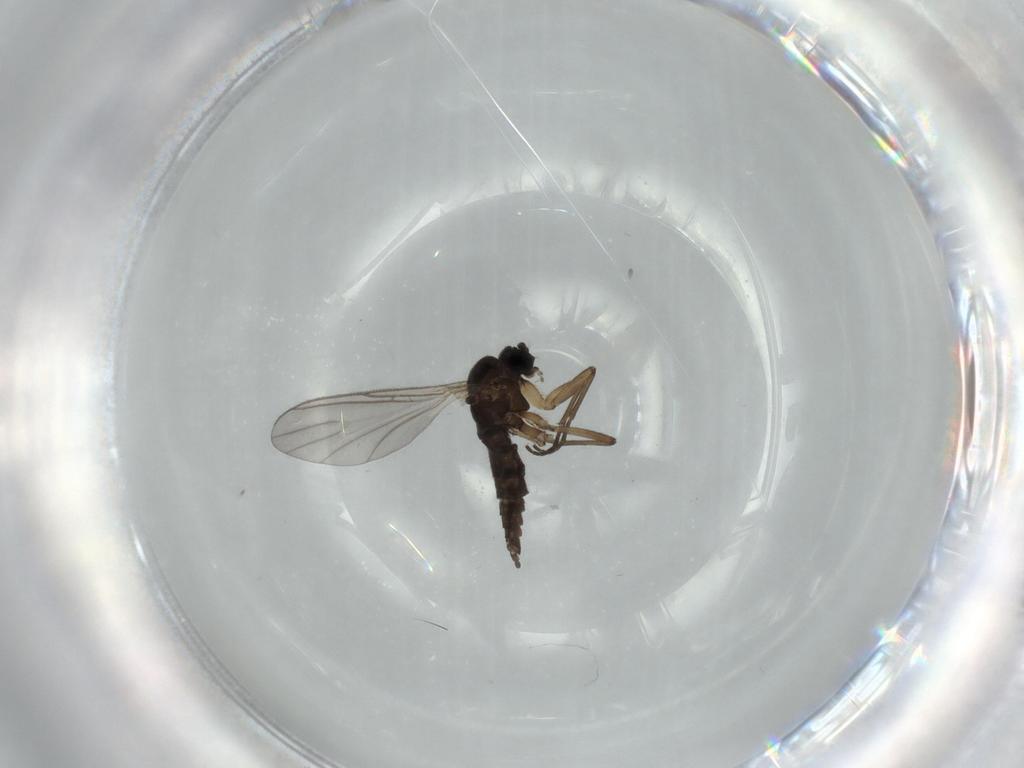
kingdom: Animalia
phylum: Arthropoda
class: Insecta
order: Diptera
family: Sciaridae
